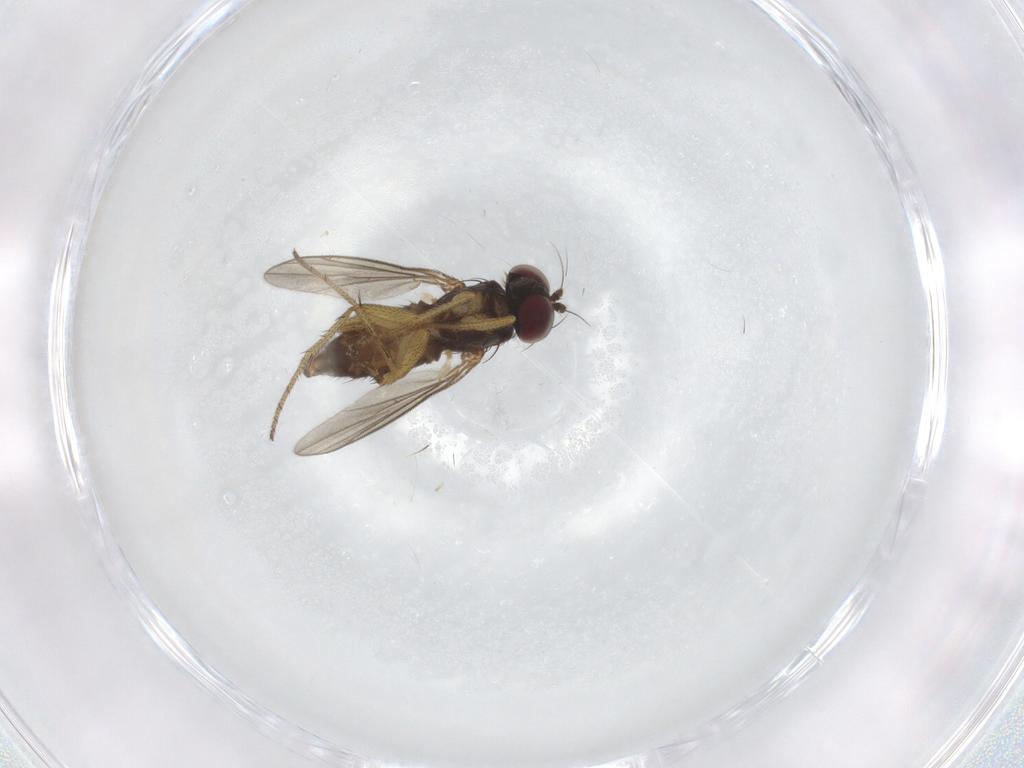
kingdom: Animalia
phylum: Arthropoda
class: Insecta
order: Diptera
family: Dolichopodidae
